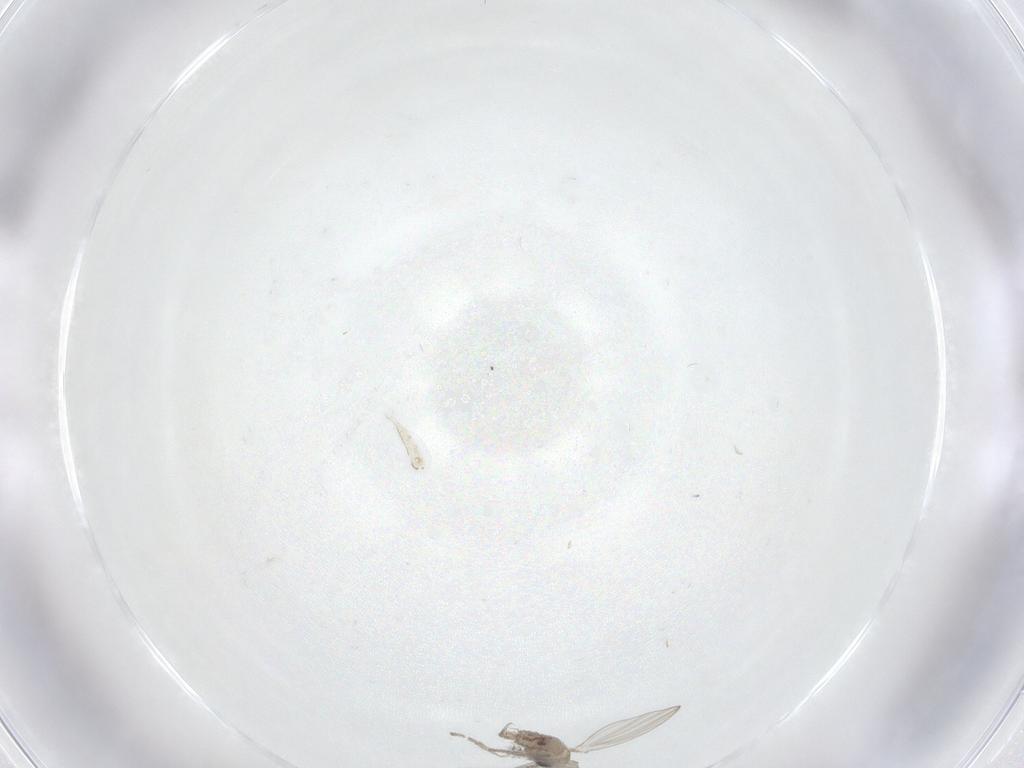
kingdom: Animalia
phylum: Arthropoda
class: Insecta
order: Diptera
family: Psychodidae
